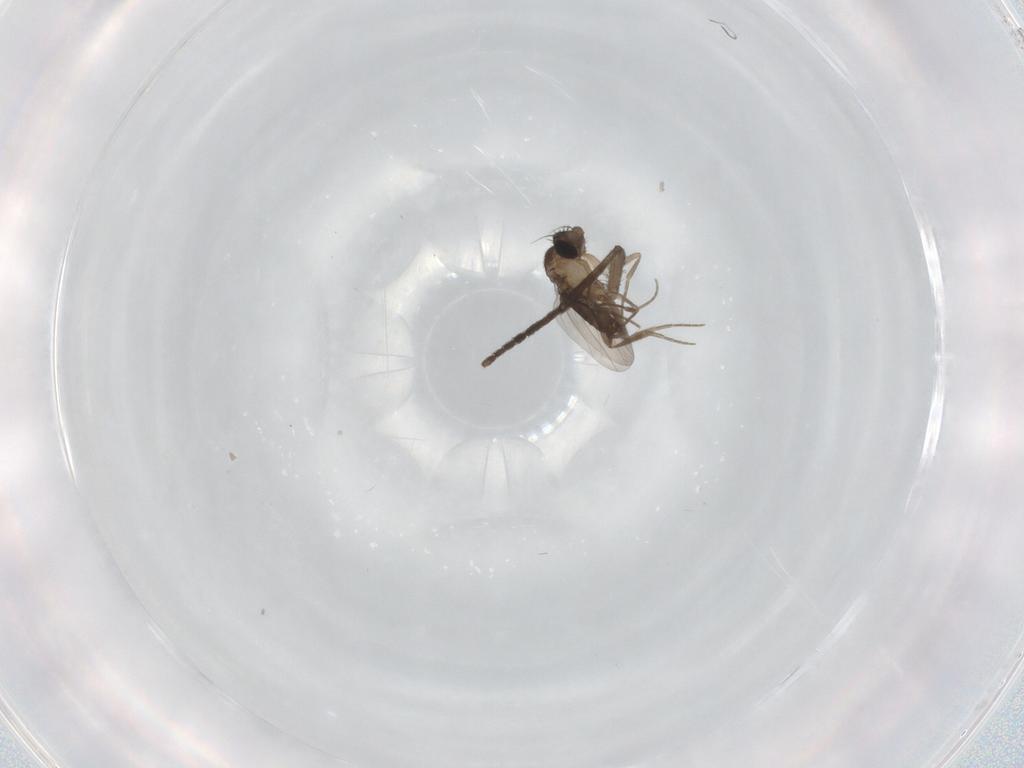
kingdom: Animalia
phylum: Arthropoda
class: Insecta
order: Diptera
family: Psychodidae
